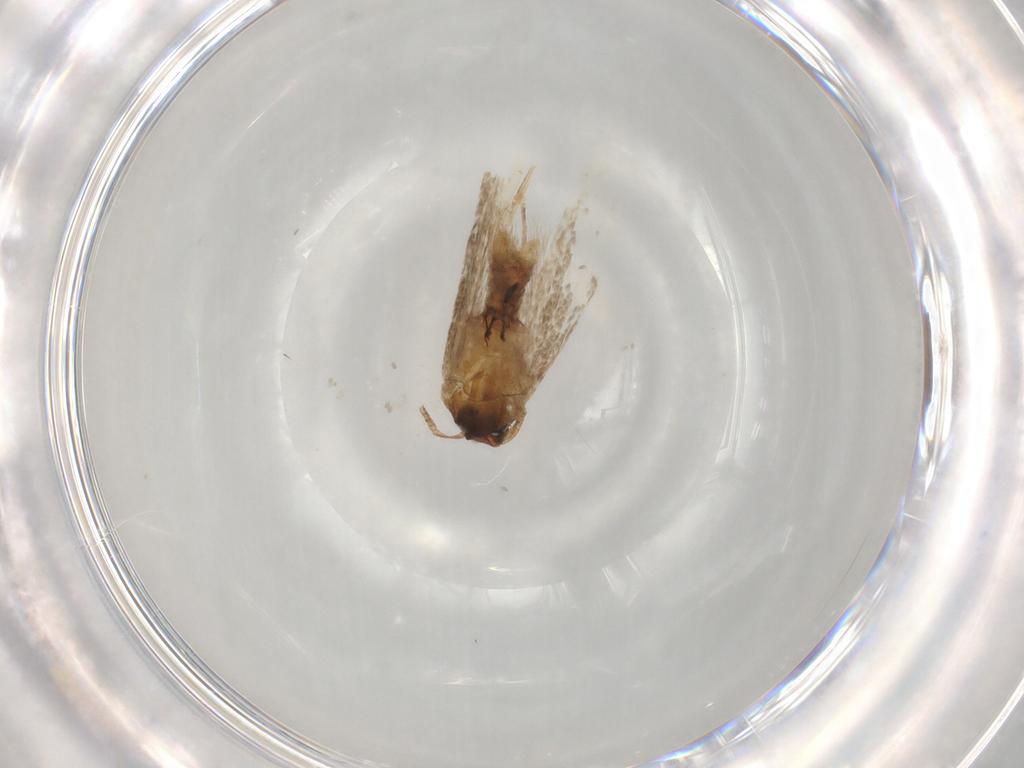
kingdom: Animalia
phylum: Arthropoda
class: Insecta
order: Lepidoptera
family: Cosmopterigidae
